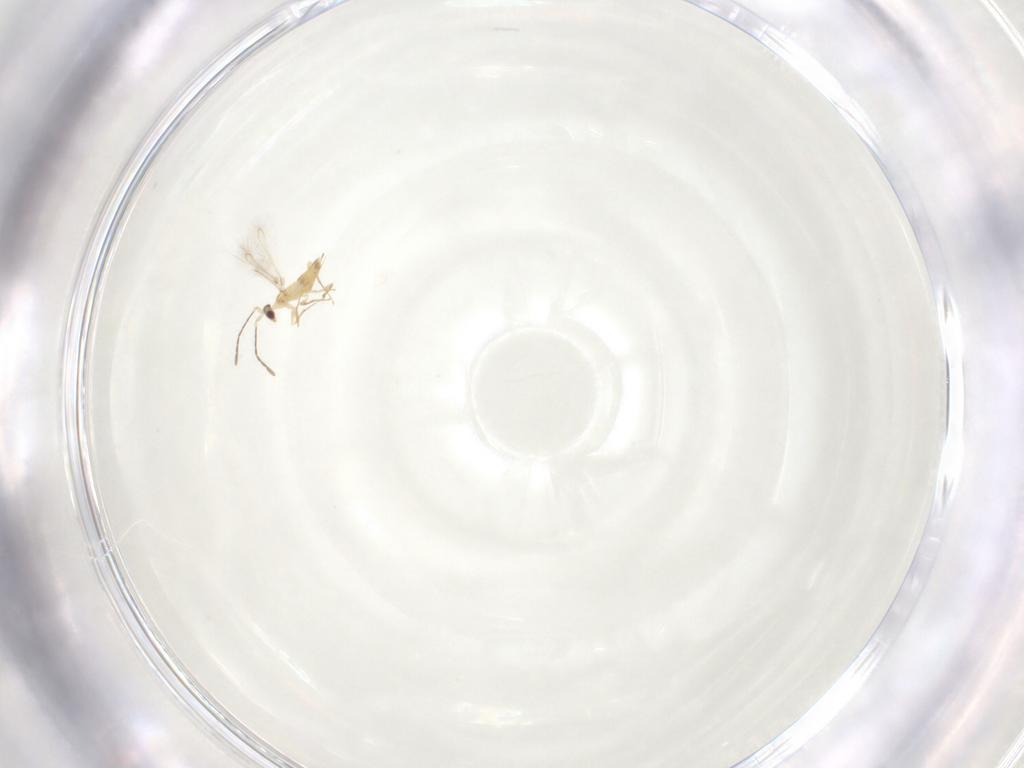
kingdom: Animalia
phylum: Arthropoda
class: Insecta
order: Hymenoptera
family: Mymaridae
